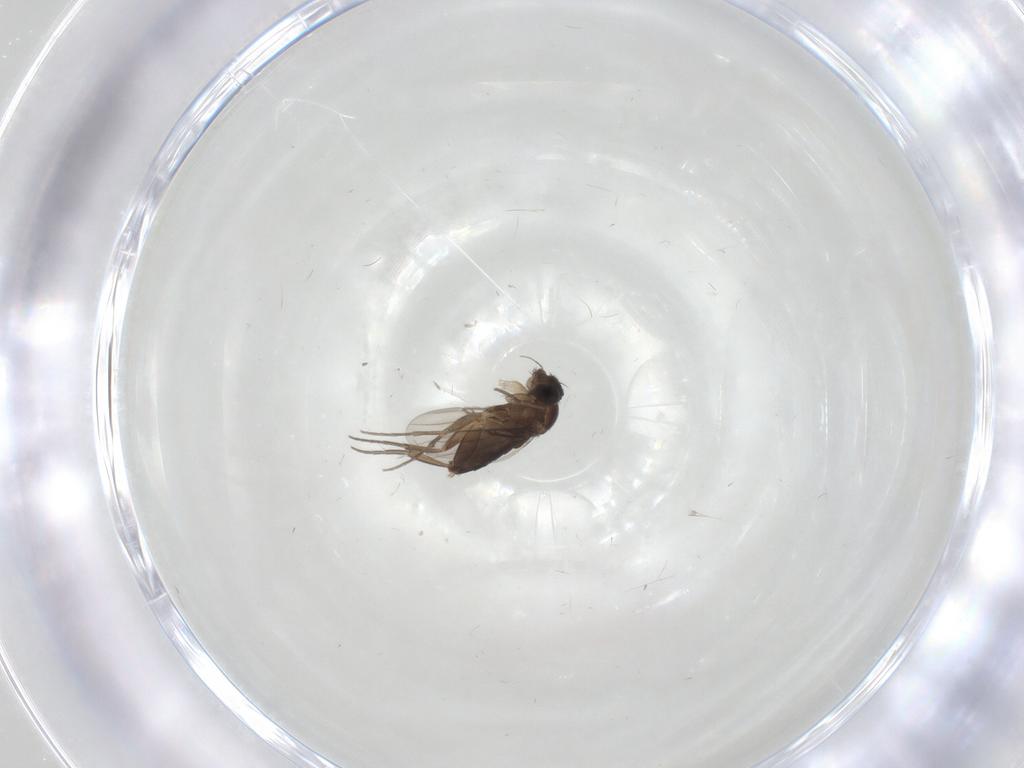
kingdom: Animalia
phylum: Arthropoda
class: Insecta
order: Diptera
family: Phoridae
